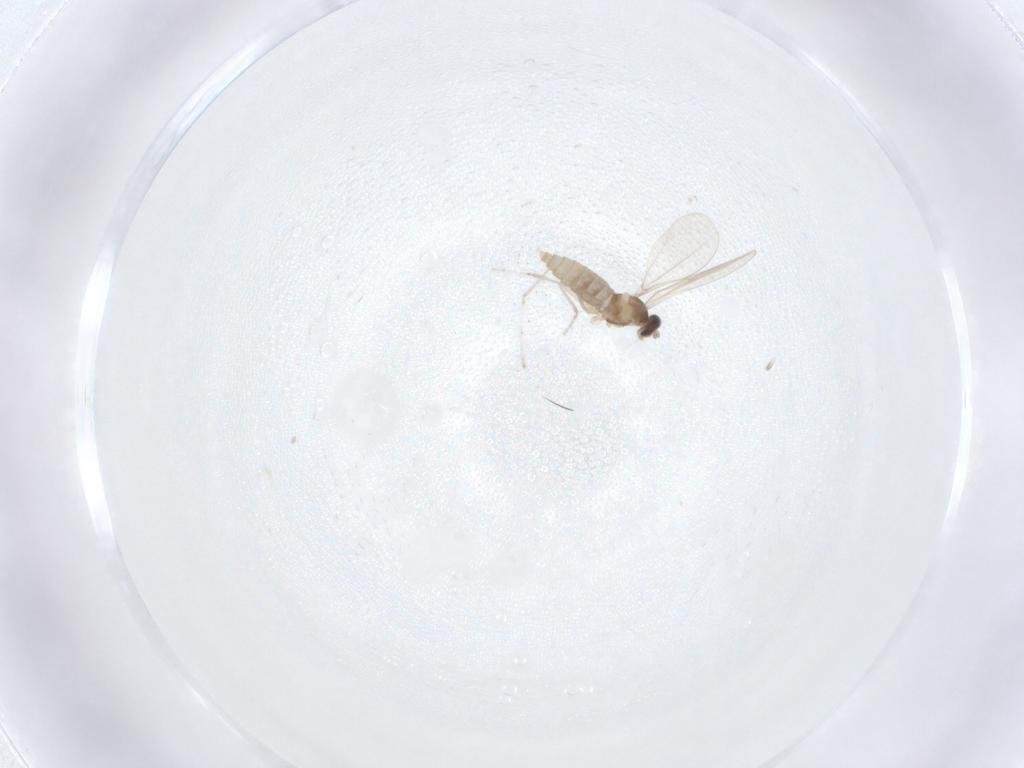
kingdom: Animalia
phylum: Arthropoda
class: Insecta
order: Diptera
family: Cecidomyiidae
